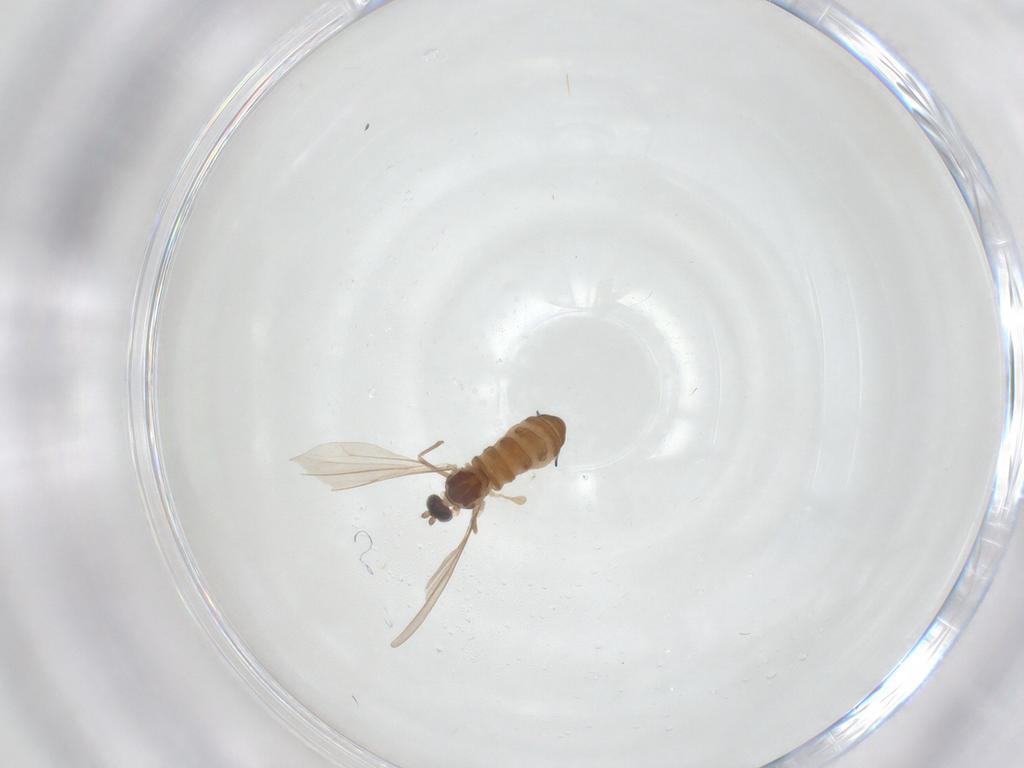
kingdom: Animalia
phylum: Arthropoda
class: Insecta
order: Diptera
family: Cecidomyiidae
